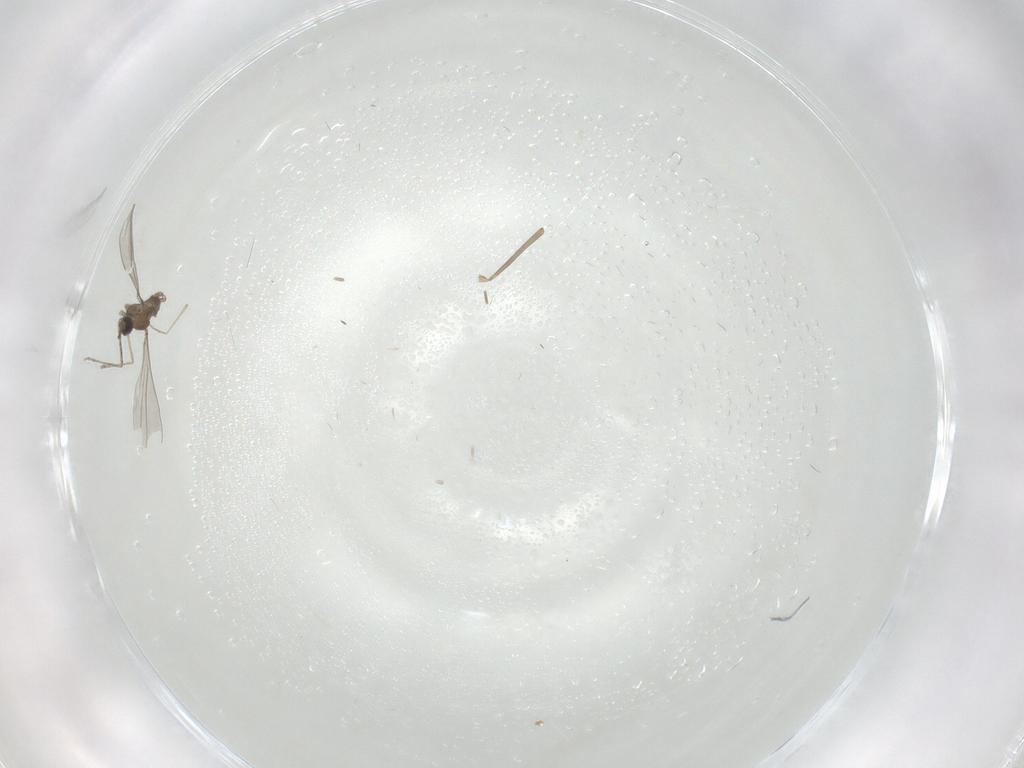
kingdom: Animalia
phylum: Arthropoda
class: Insecta
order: Diptera
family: Cecidomyiidae
